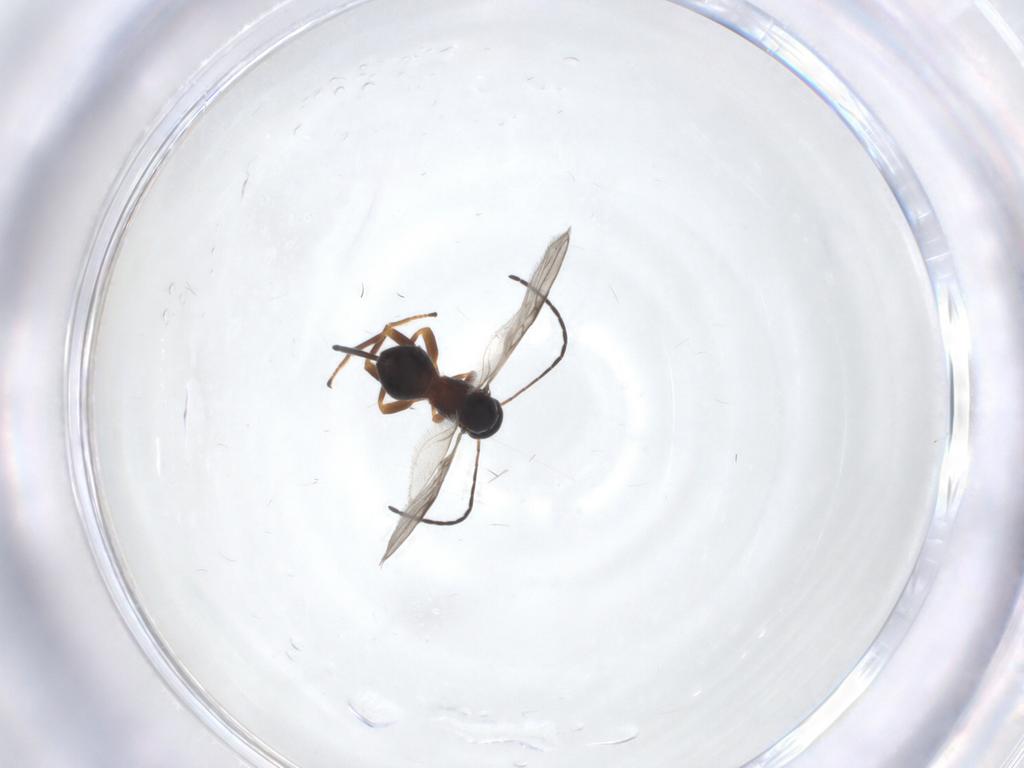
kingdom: Animalia
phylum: Arthropoda
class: Insecta
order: Hymenoptera
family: Braconidae
